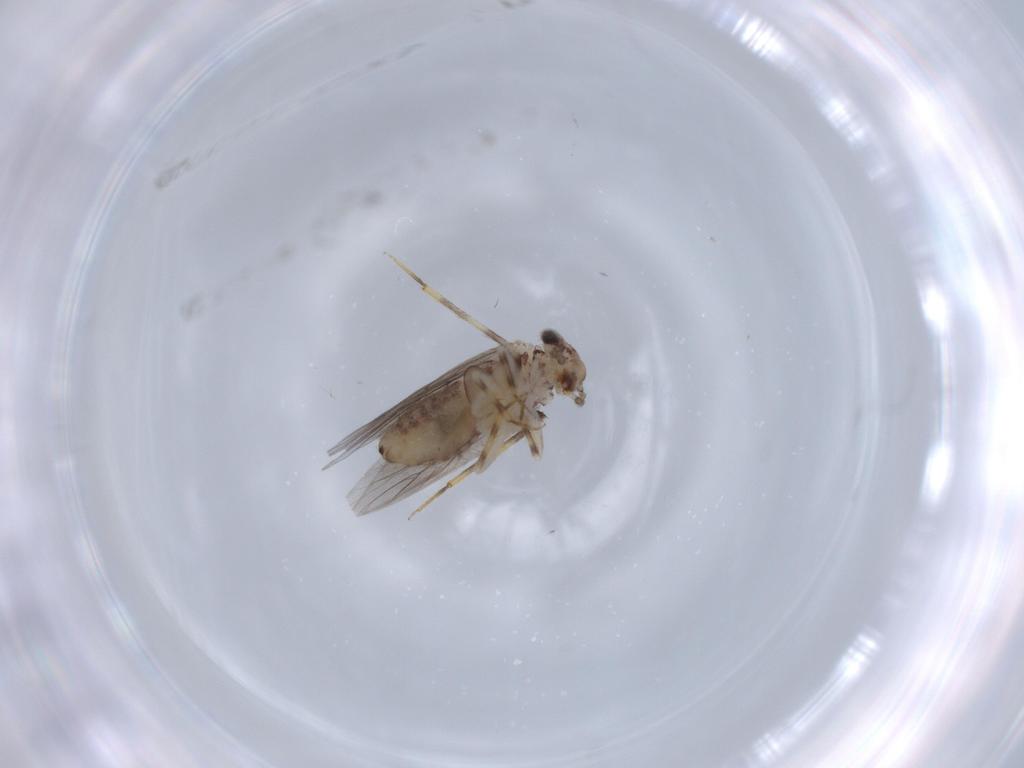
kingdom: Animalia
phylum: Arthropoda
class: Insecta
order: Psocodea
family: Lepidopsocidae
